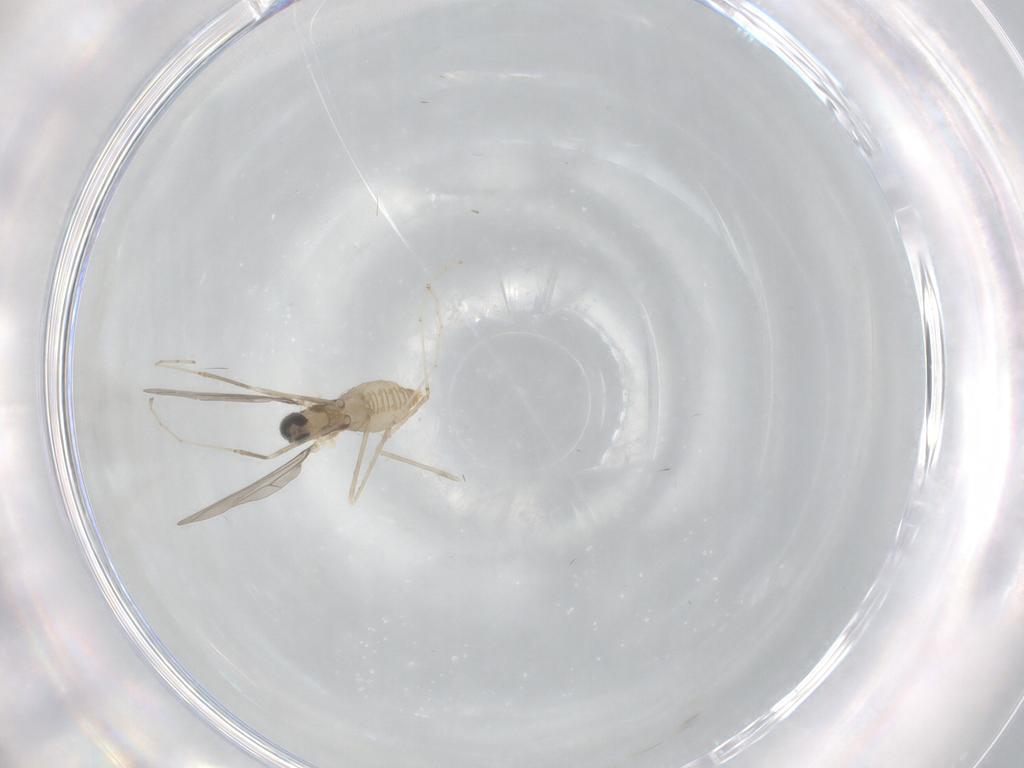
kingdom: Animalia
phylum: Arthropoda
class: Insecta
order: Diptera
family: Cecidomyiidae
